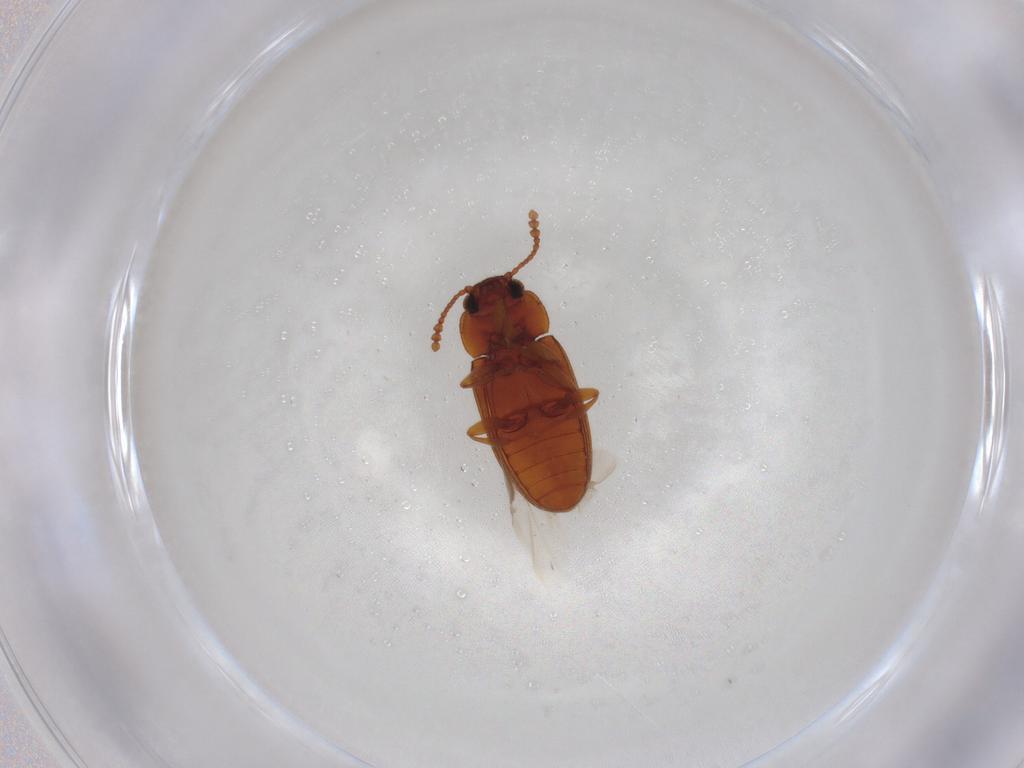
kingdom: Animalia
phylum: Arthropoda
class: Insecta
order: Coleoptera
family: Erotylidae
